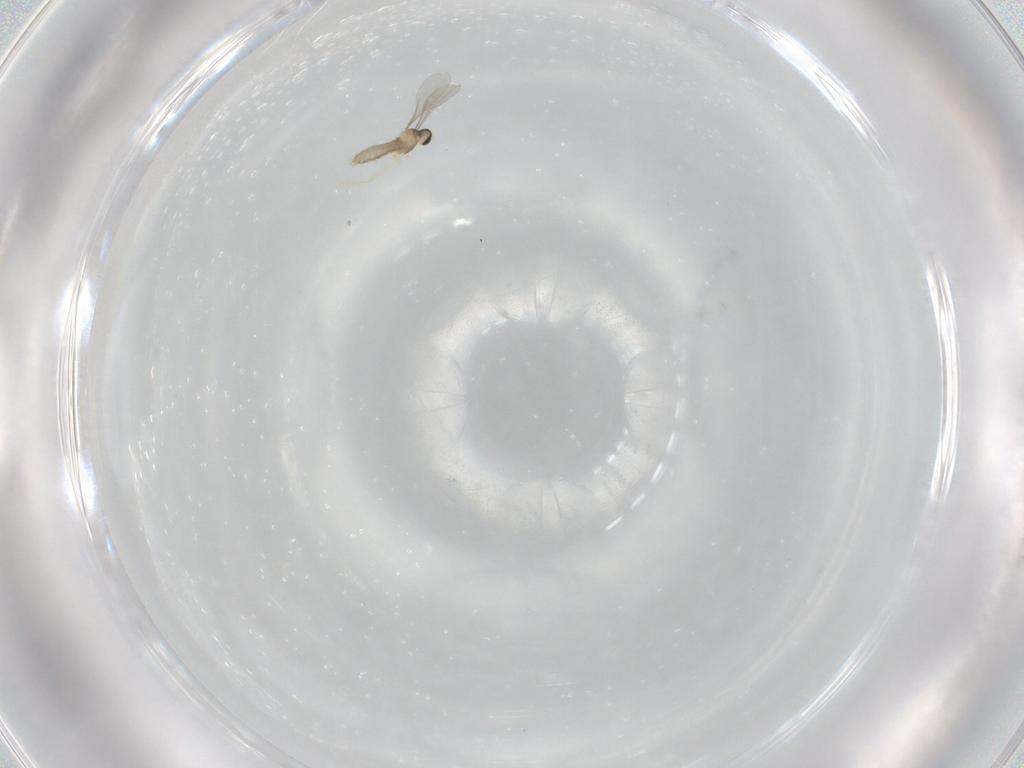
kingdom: Animalia
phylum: Arthropoda
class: Insecta
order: Diptera
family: Cecidomyiidae
